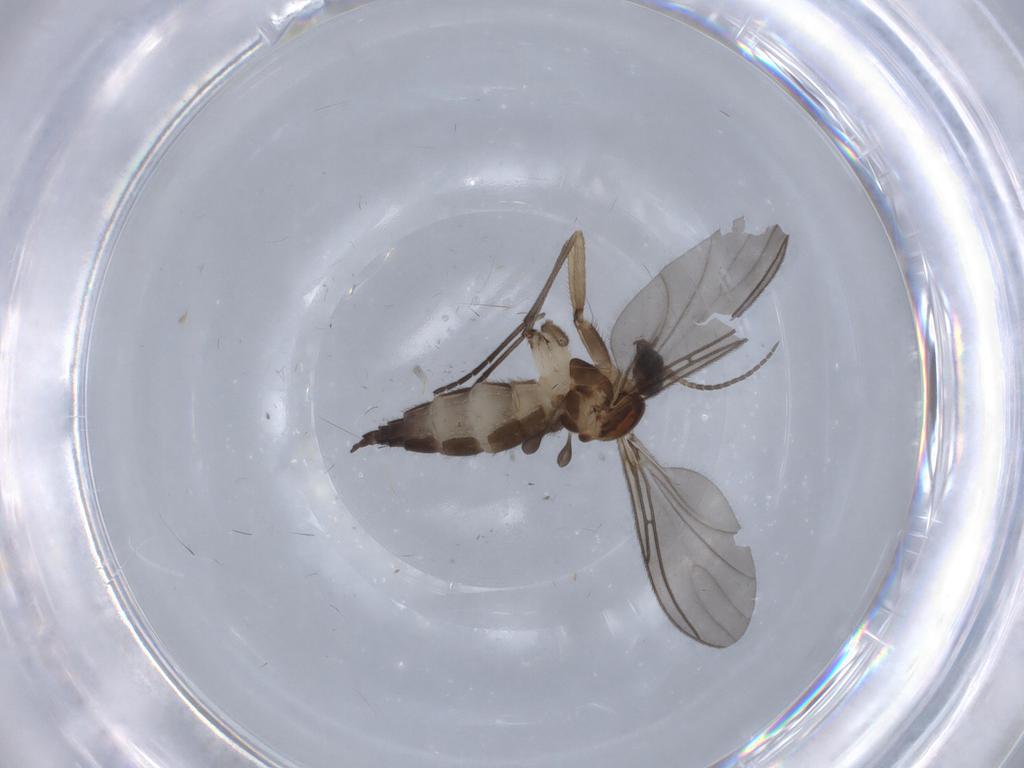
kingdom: Animalia
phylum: Arthropoda
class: Insecta
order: Diptera
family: Sciaridae
